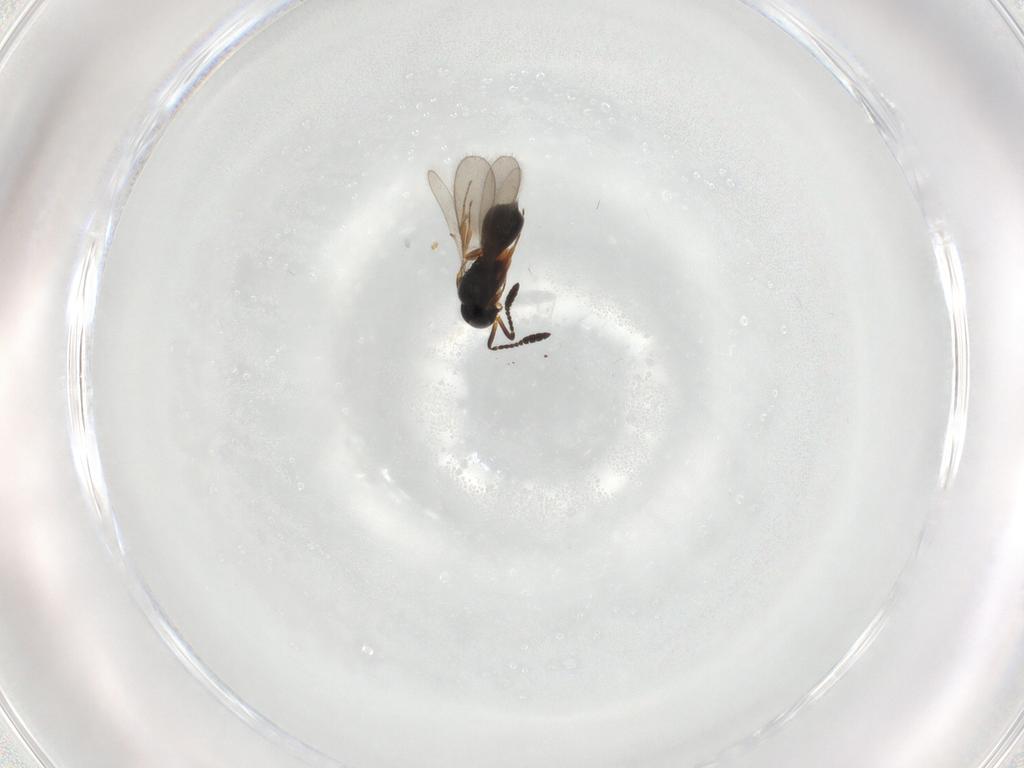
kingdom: Animalia
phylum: Arthropoda
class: Insecta
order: Hymenoptera
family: Scelionidae
